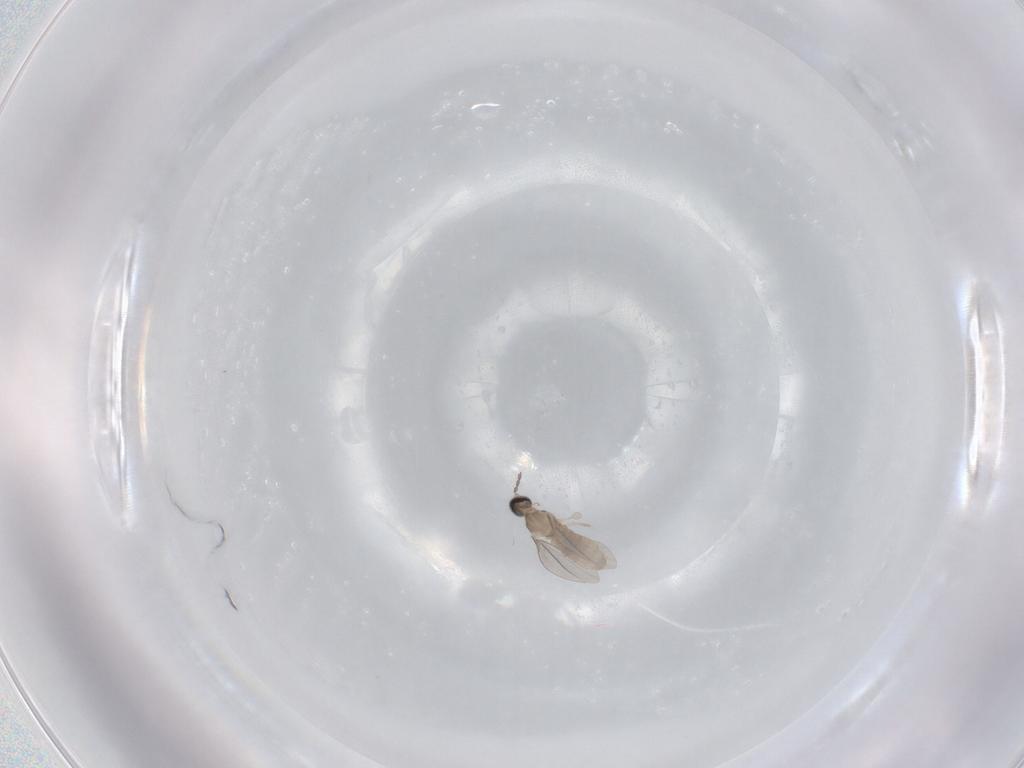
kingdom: Animalia
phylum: Arthropoda
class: Insecta
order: Diptera
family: Cecidomyiidae
